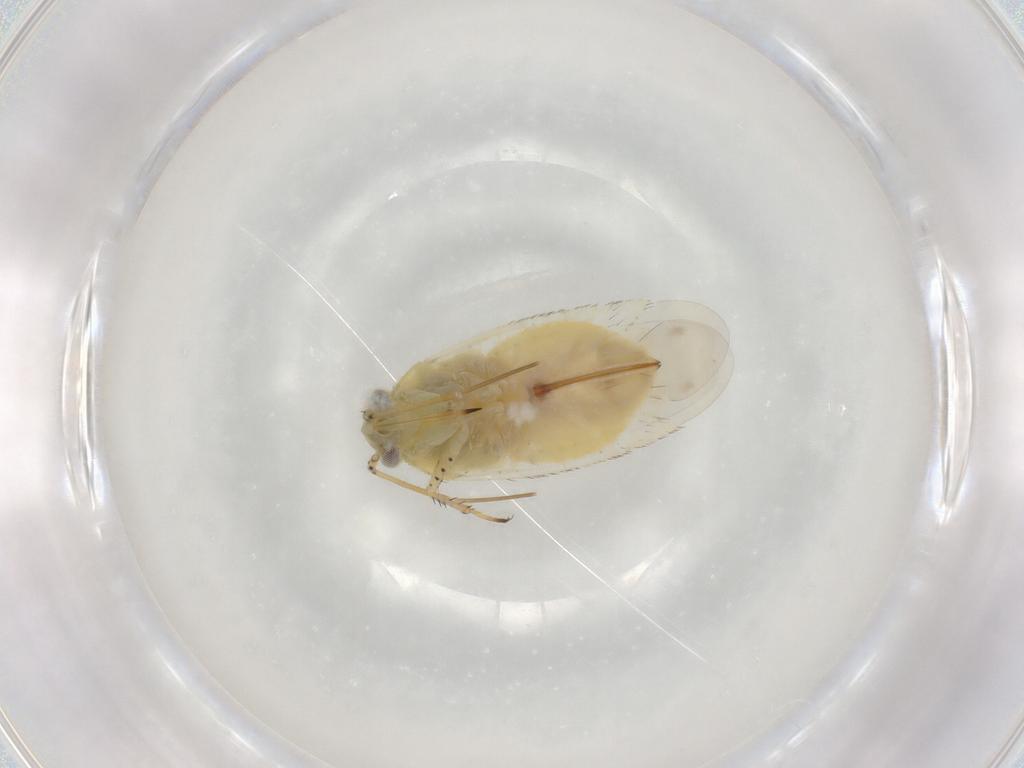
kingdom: Animalia
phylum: Arthropoda
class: Insecta
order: Hemiptera
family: Miridae
